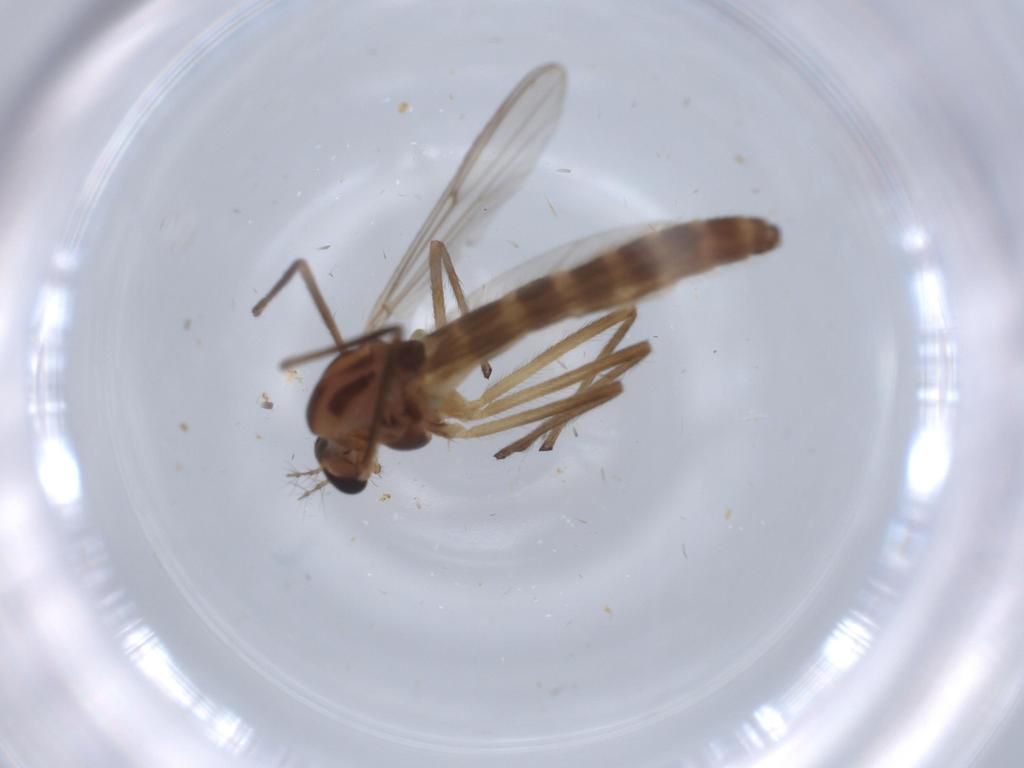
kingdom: Animalia
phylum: Arthropoda
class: Insecta
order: Diptera
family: Chironomidae
